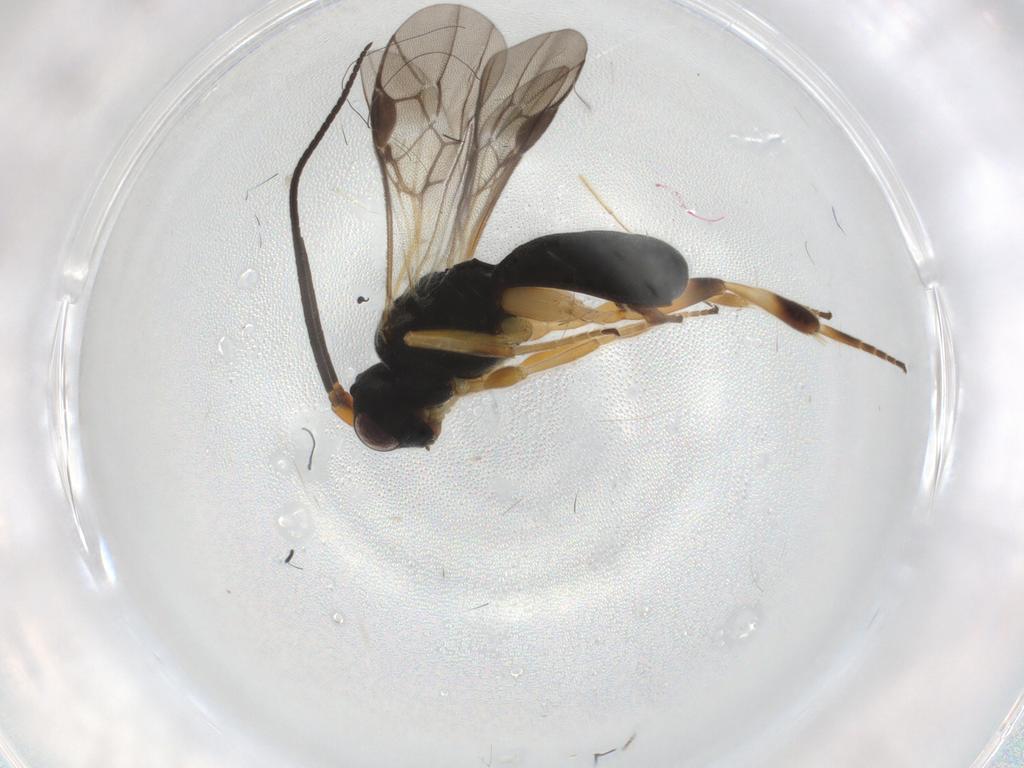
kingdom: Animalia
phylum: Arthropoda
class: Insecta
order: Hymenoptera
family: Braconidae
